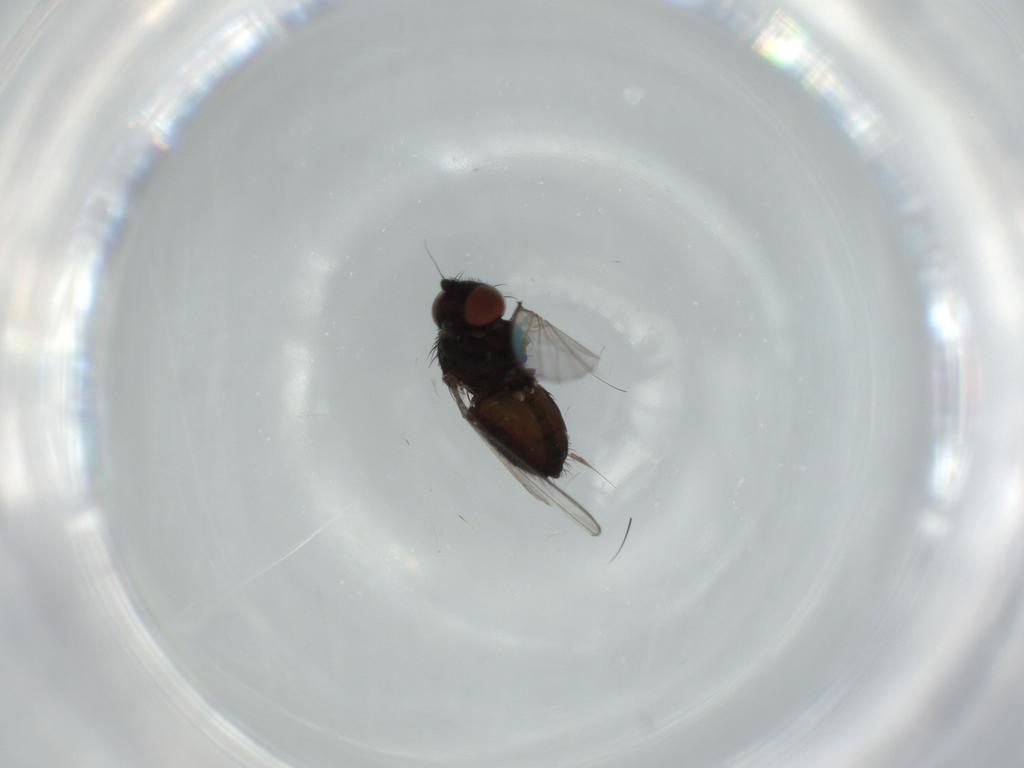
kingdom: Animalia
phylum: Arthropoda
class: Insecta
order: Diptera
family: Milichiidae
